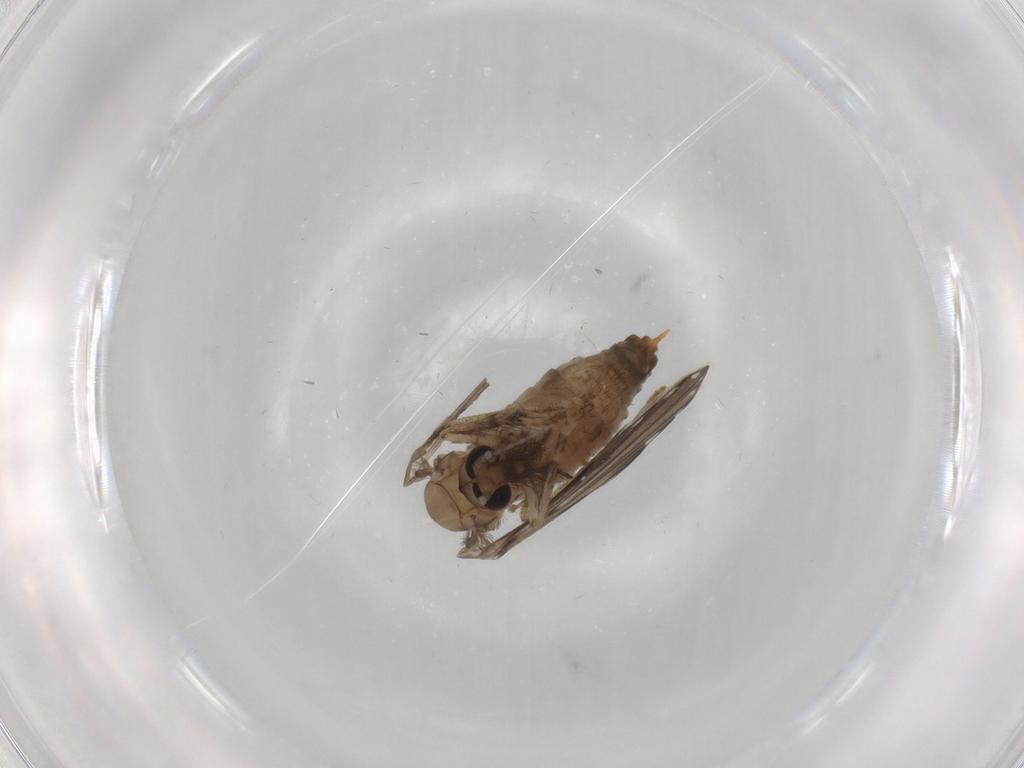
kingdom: Animalia
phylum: Arthropoda
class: Insecta
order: Diptera
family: Psychodidae
